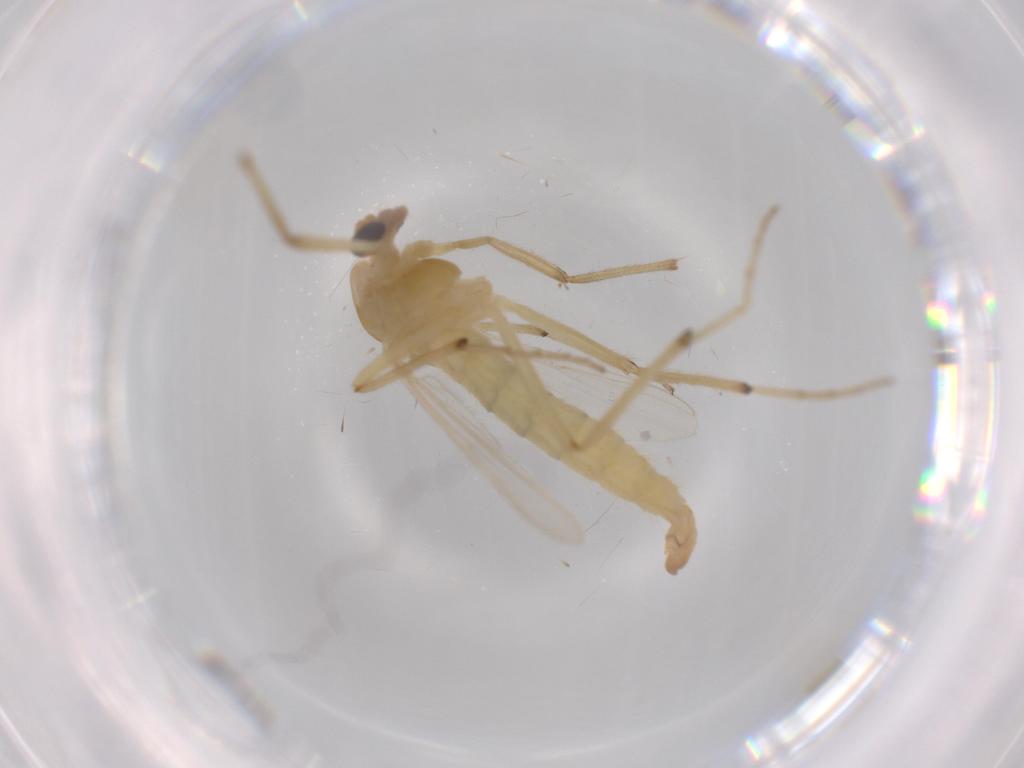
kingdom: Animalia
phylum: Arthropoda
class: Insecta
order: Diptera
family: Chironomidae
